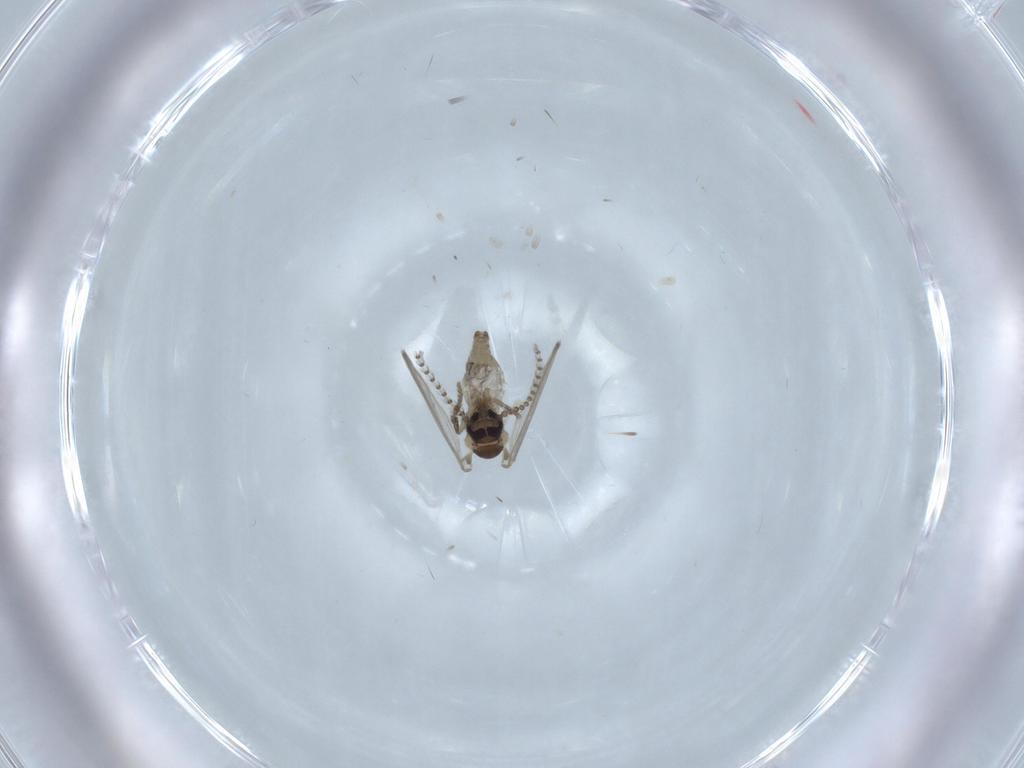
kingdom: Animalia
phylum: Arthropoda
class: Insecta
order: Diptera
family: Psychodidae
